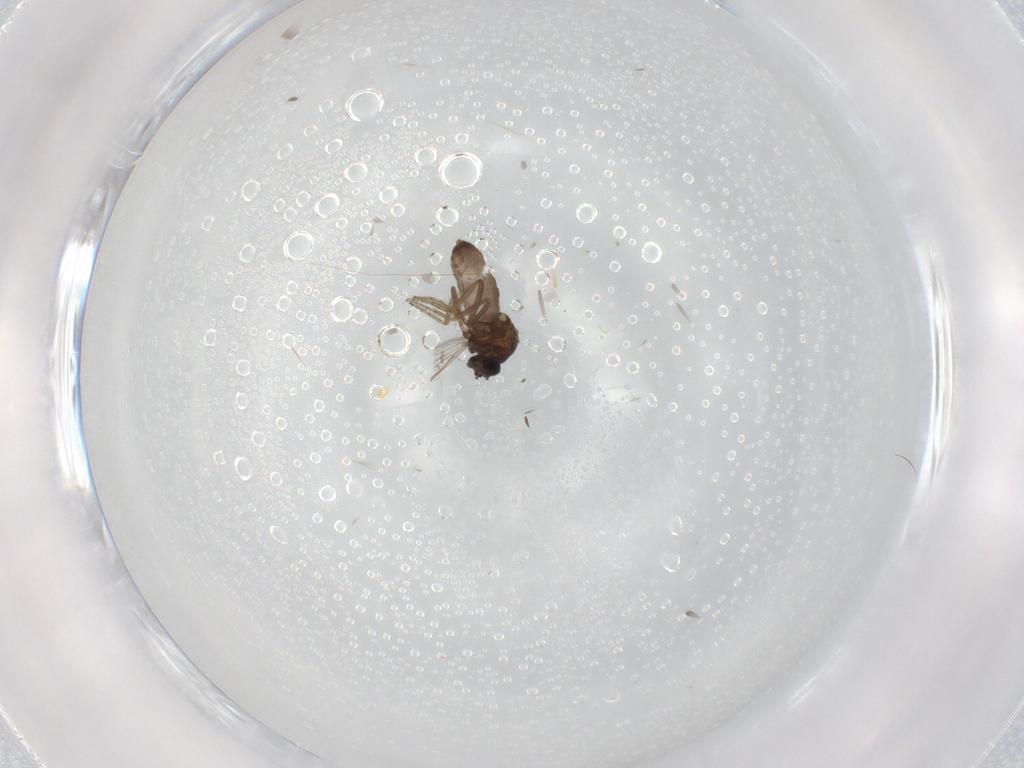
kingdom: Animalia
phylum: Arthropoda
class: Insecta
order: Diptera
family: Ceratopogonidae
